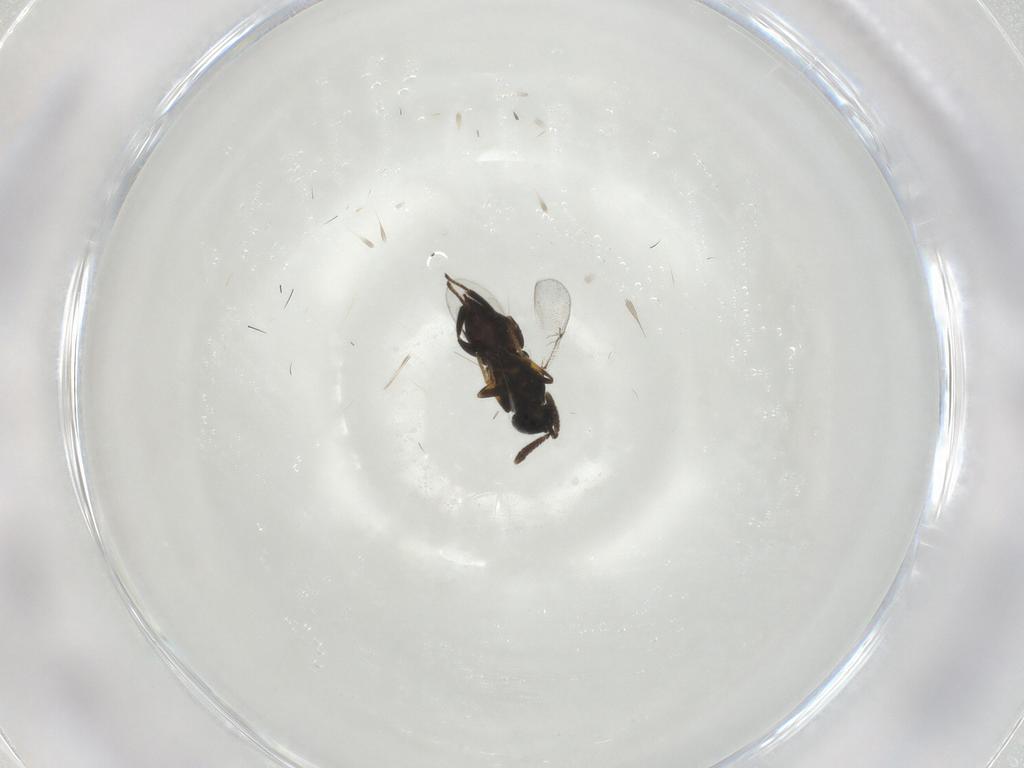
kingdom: Animalia
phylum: Arthropoda
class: Insecta
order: Hymenoptera
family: Encyrtidae
